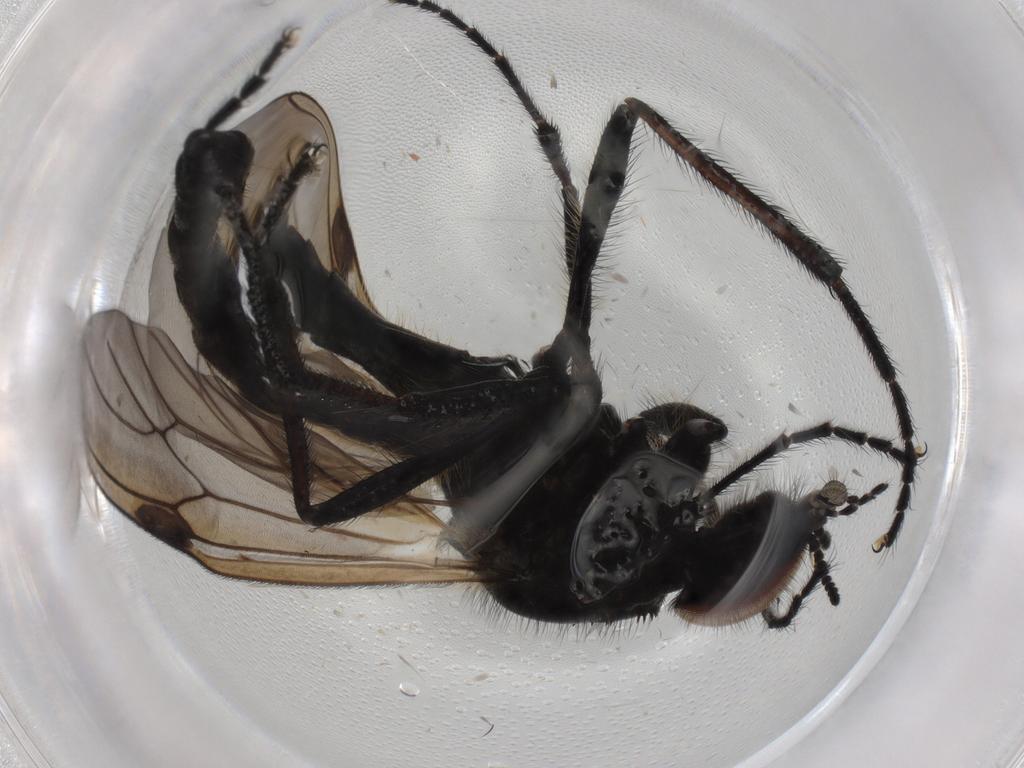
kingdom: Animalia
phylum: Arthropoda
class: Insecta
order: Diptera
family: Bibionidae
